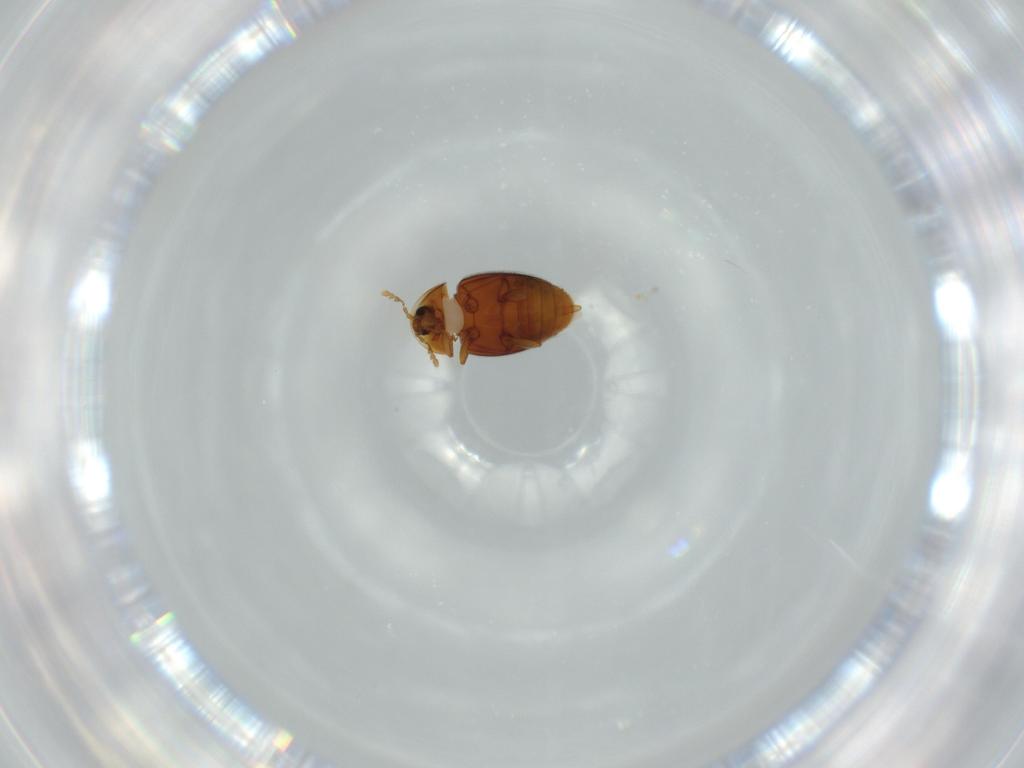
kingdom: Animalia
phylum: Arthropoda
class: Insecta
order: Coleoptera
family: Corylophidae
